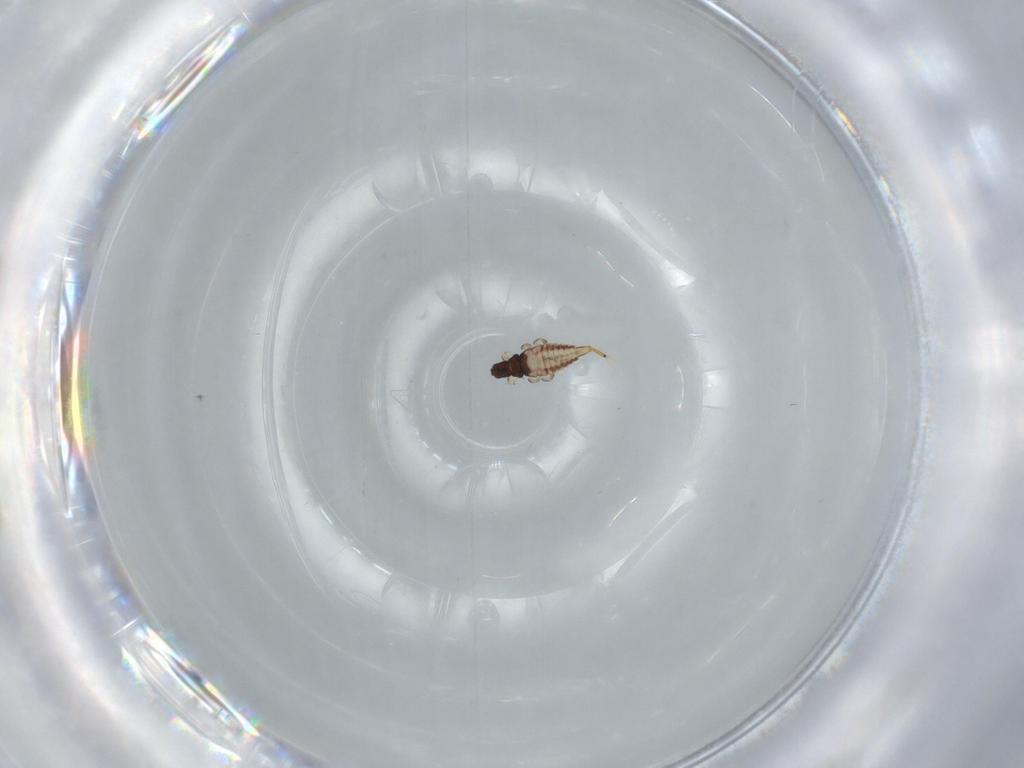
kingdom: Animalia
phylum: Arthropoda
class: Insecta
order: Thysanoptera
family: Phlaeothripidae
